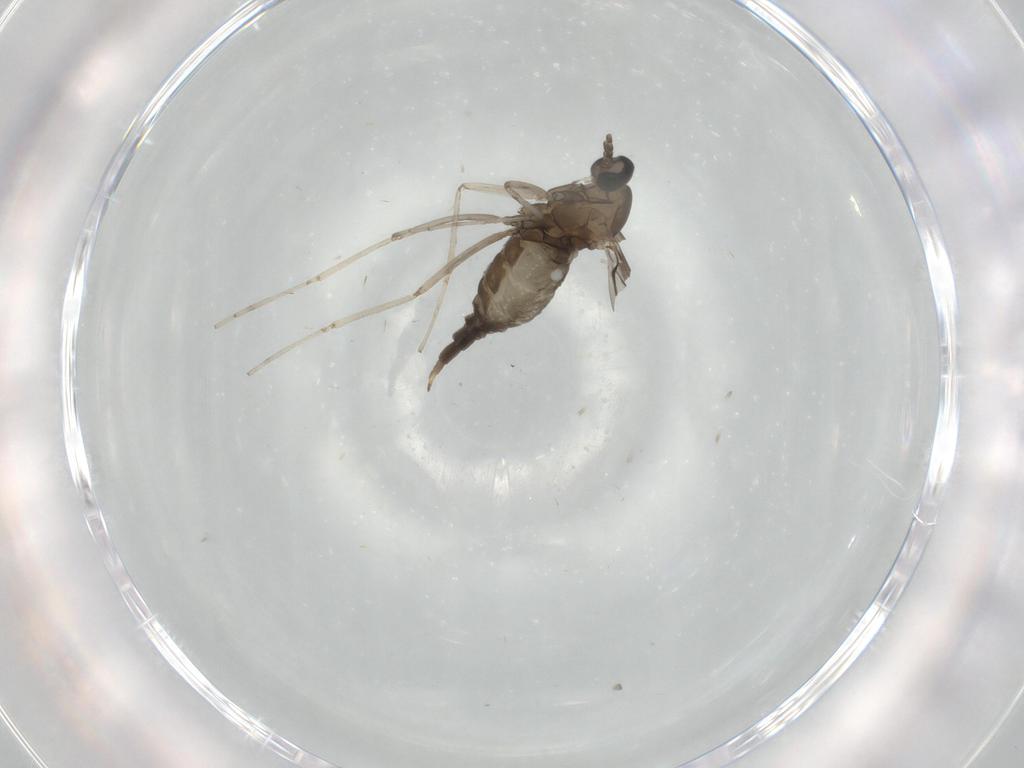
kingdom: Animalia
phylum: Arthropoda
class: Insecta
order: Diptera
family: Cecidomyiidae
